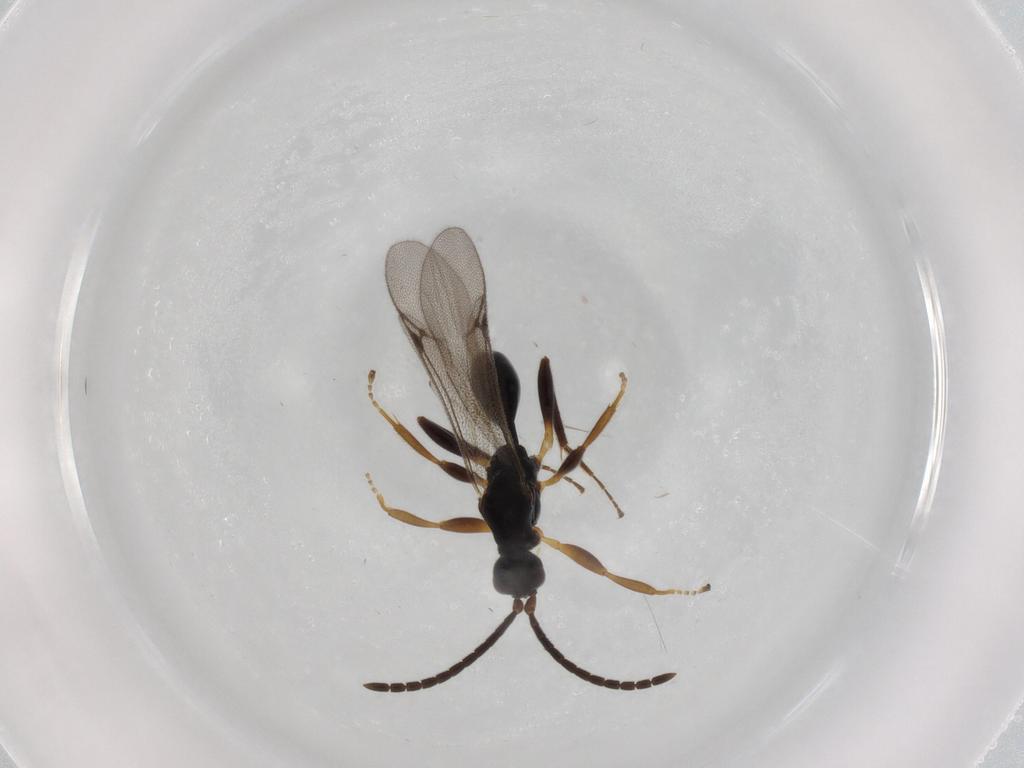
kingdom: Animalia
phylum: Arthropoda
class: Insecta
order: Hymenoptera
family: Proctotrupidae
